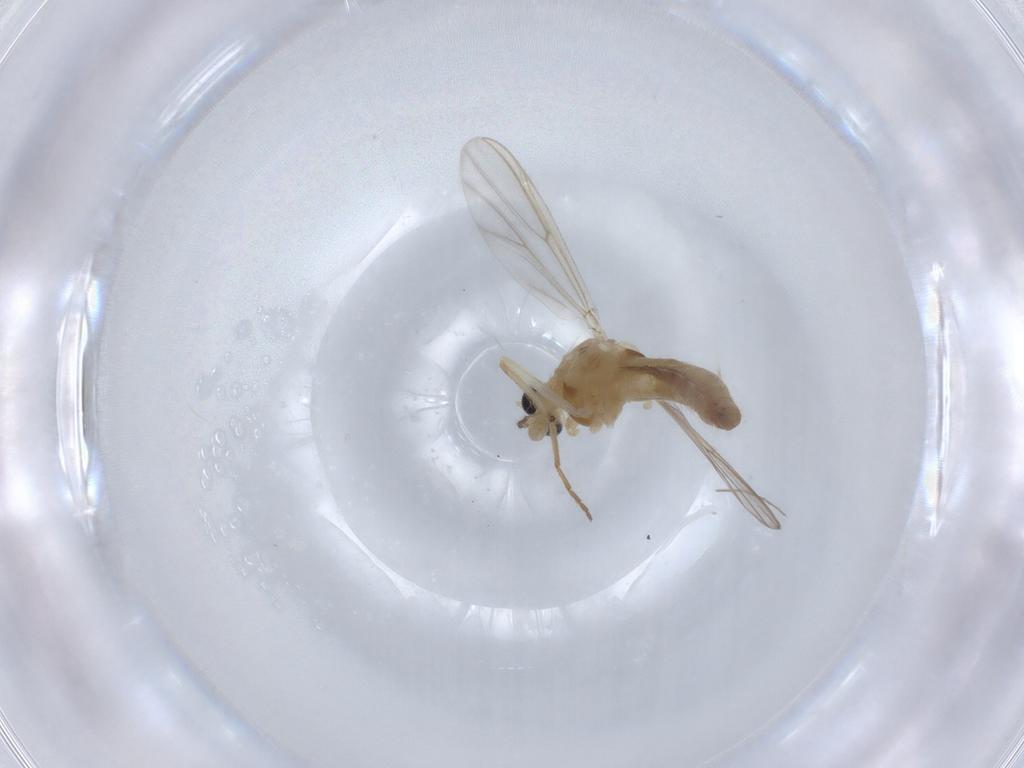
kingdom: Animalia
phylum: Arthropoda
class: Insecta
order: Diptera
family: Chironomidae
